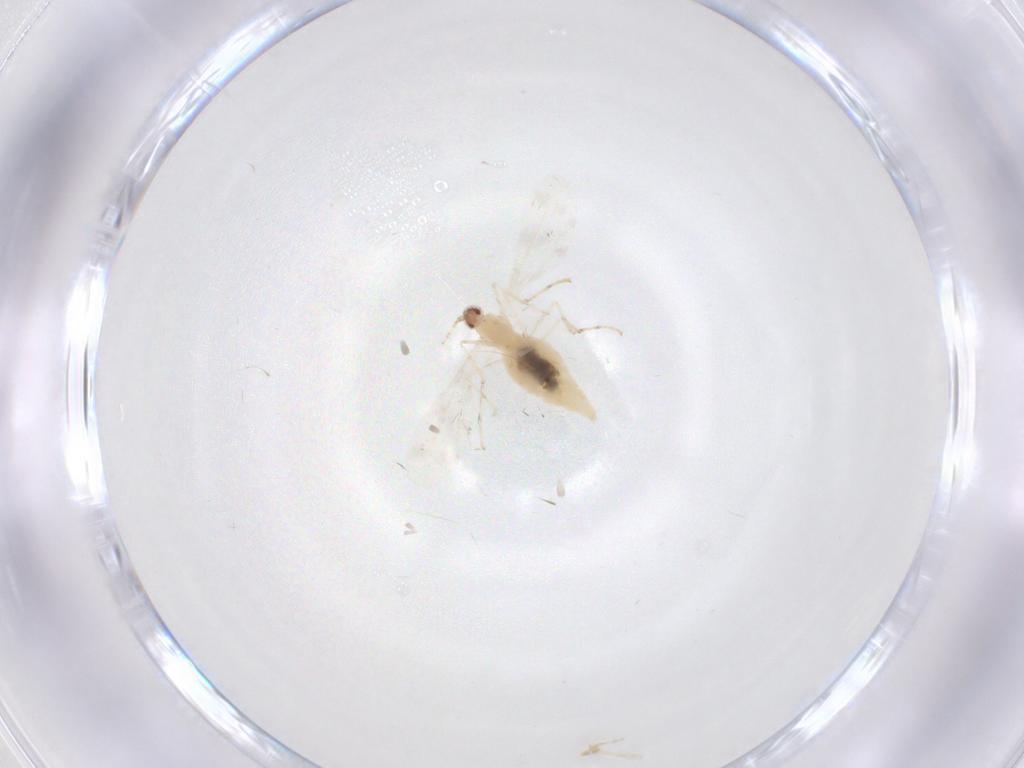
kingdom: Animalia
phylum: Arthropoda
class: Insecta
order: Diptera
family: Cecidomyiidae
